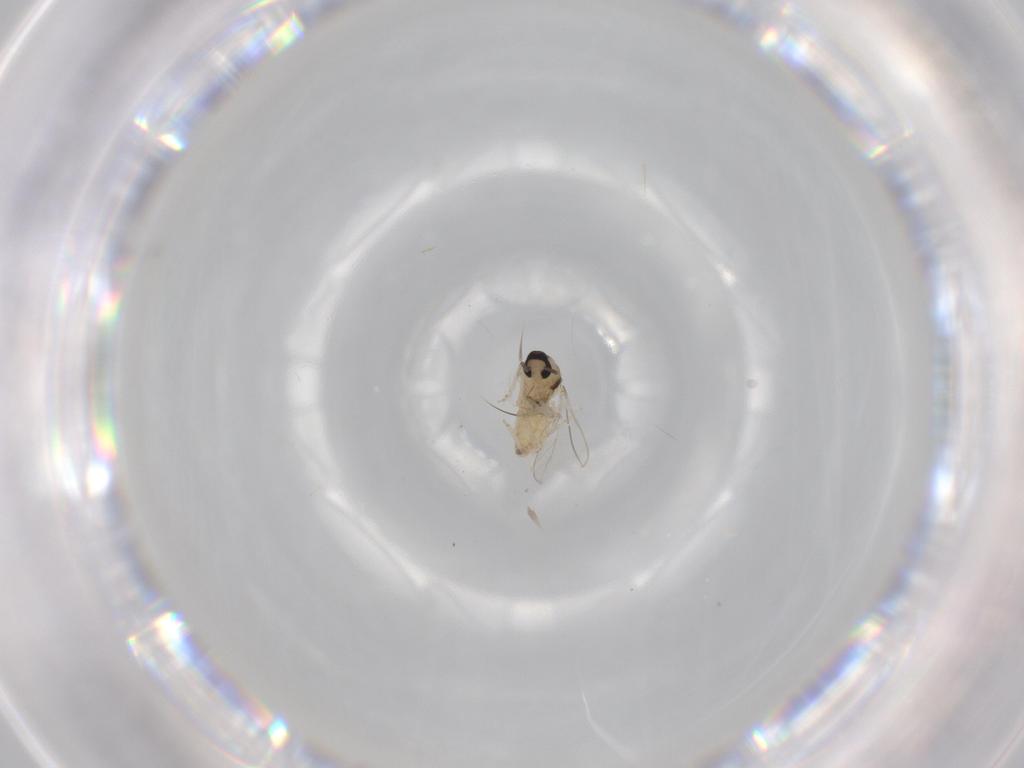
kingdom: Animalia
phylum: Arthropoda
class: Insecta
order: Diptera
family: Cecidomyiidae
